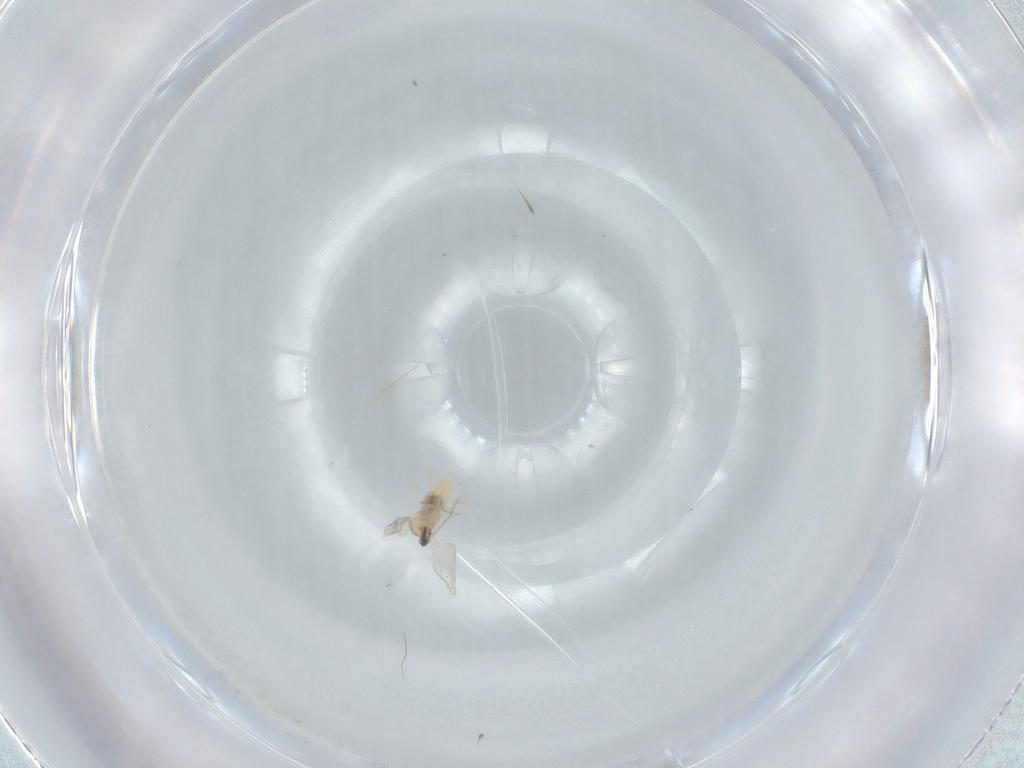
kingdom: Animalia
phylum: Arthropoda
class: Insecta
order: Diptera
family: Cecidomyiidae
